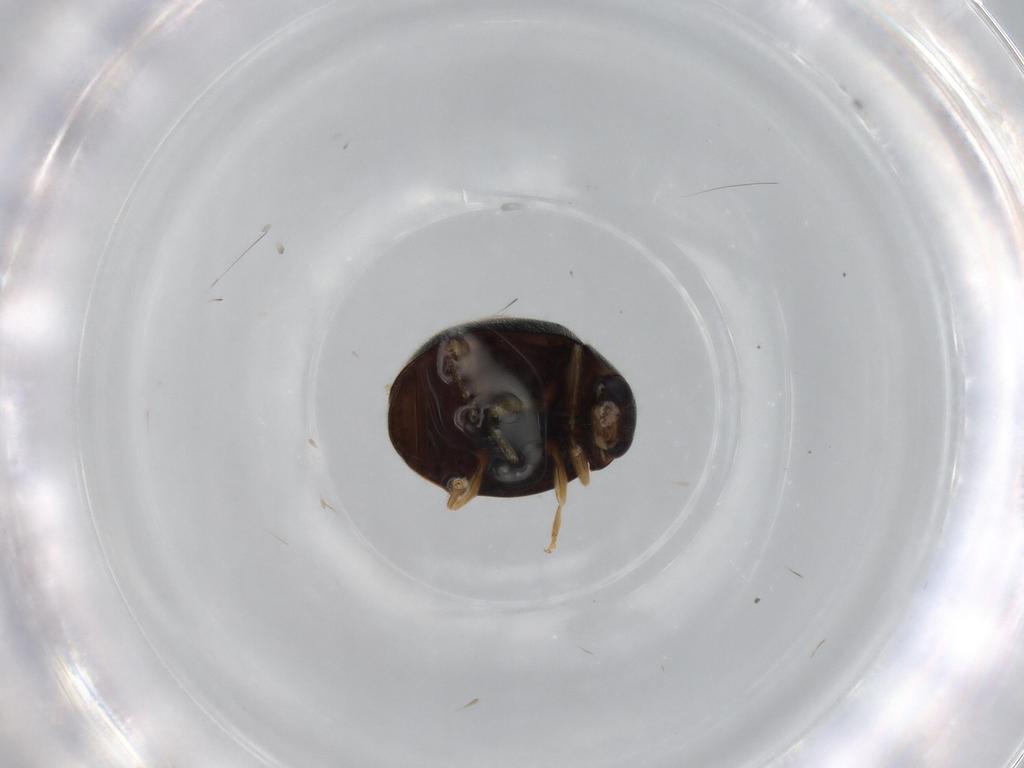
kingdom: Animalia
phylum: Arthropoda
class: Insecta
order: Coleoptera
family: Coccinellidae
